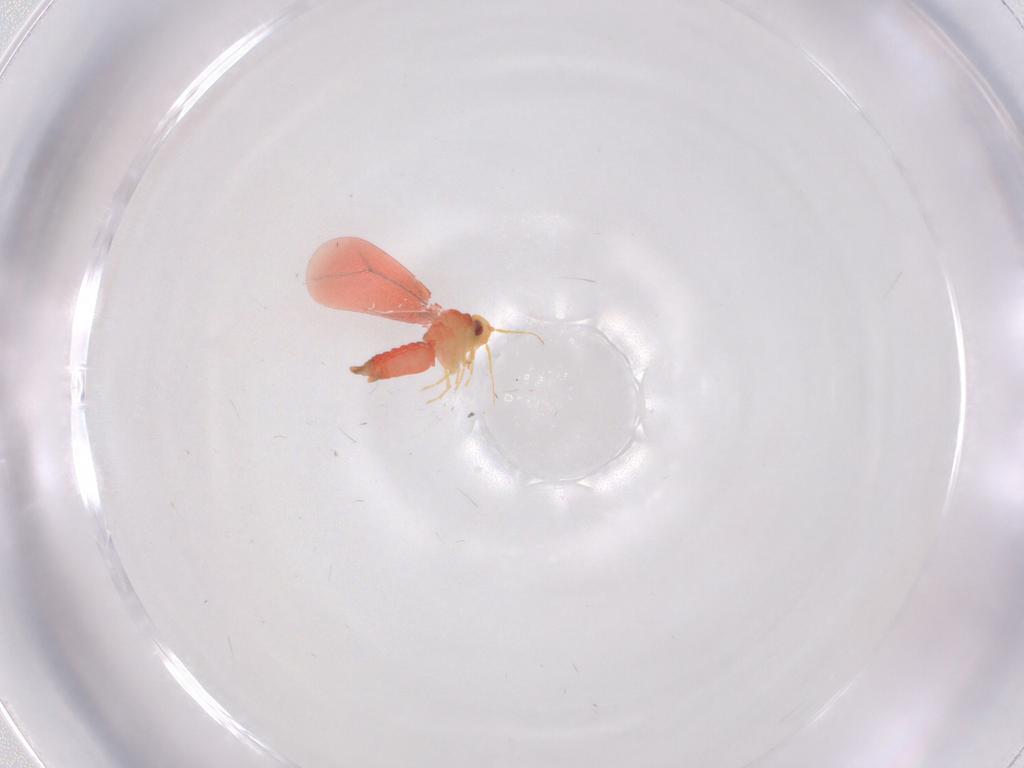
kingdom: Animalia
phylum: Arthropoda
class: Insecta
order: Hemiptera
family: Aleyrodidae
